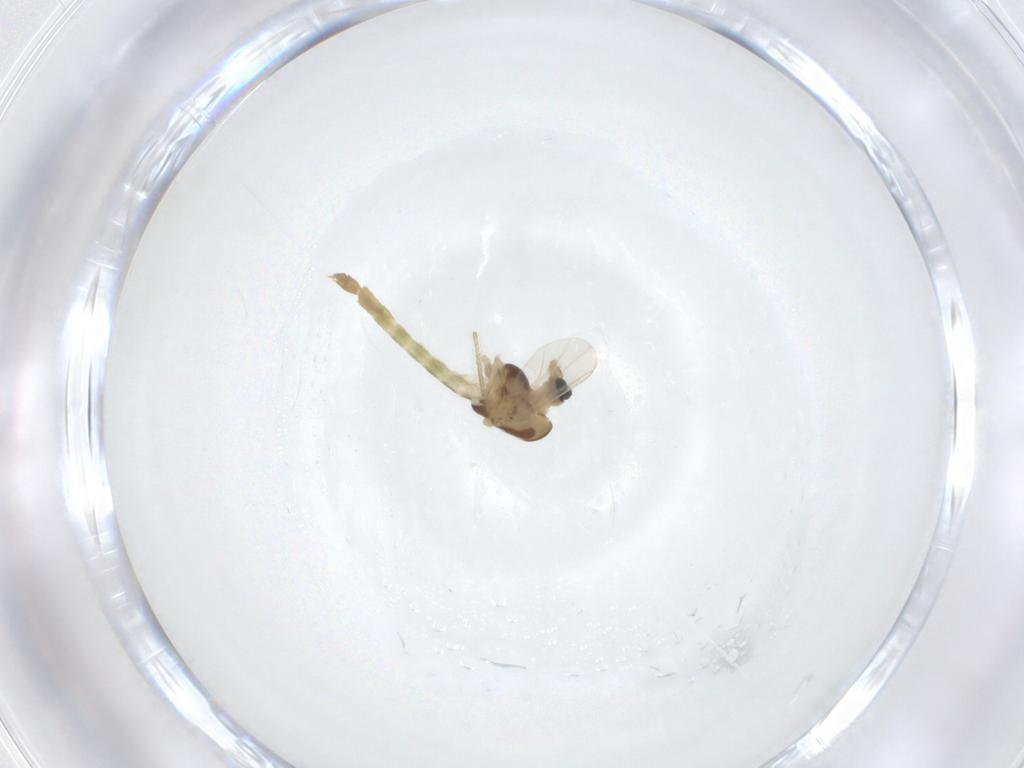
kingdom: Animalia
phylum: Arthropoda
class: Insecta
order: Diptera
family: Chironomidae
